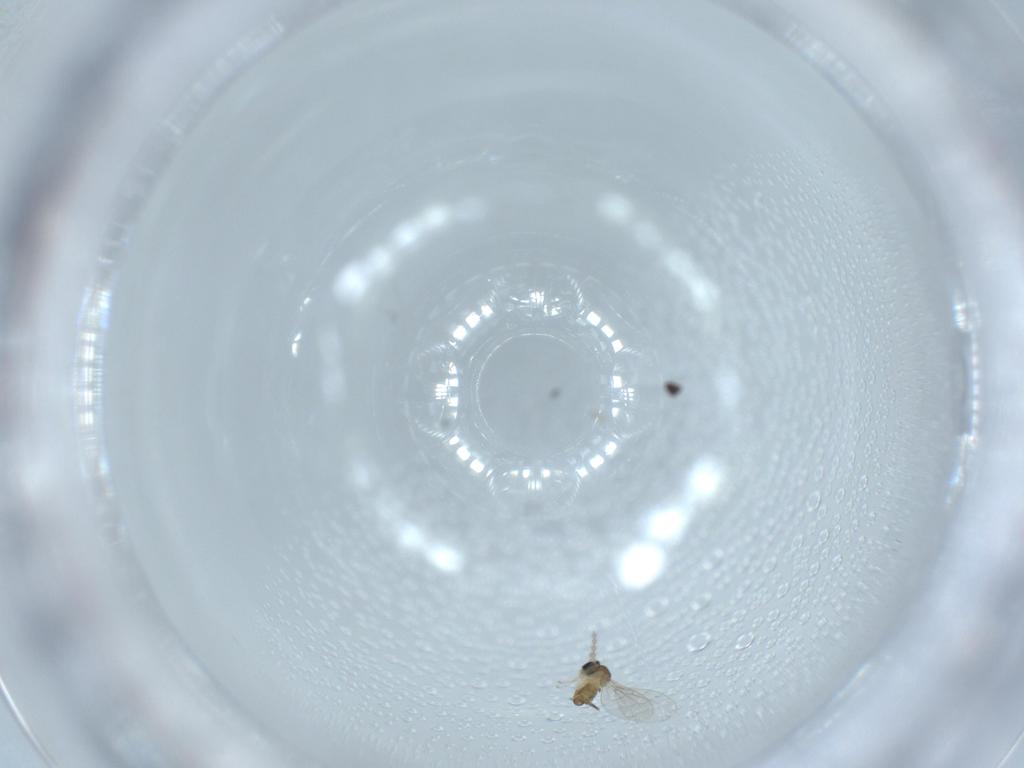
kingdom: Animalia
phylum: Arthropoda
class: Insecta
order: Diptera
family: Cecidomyiidae
